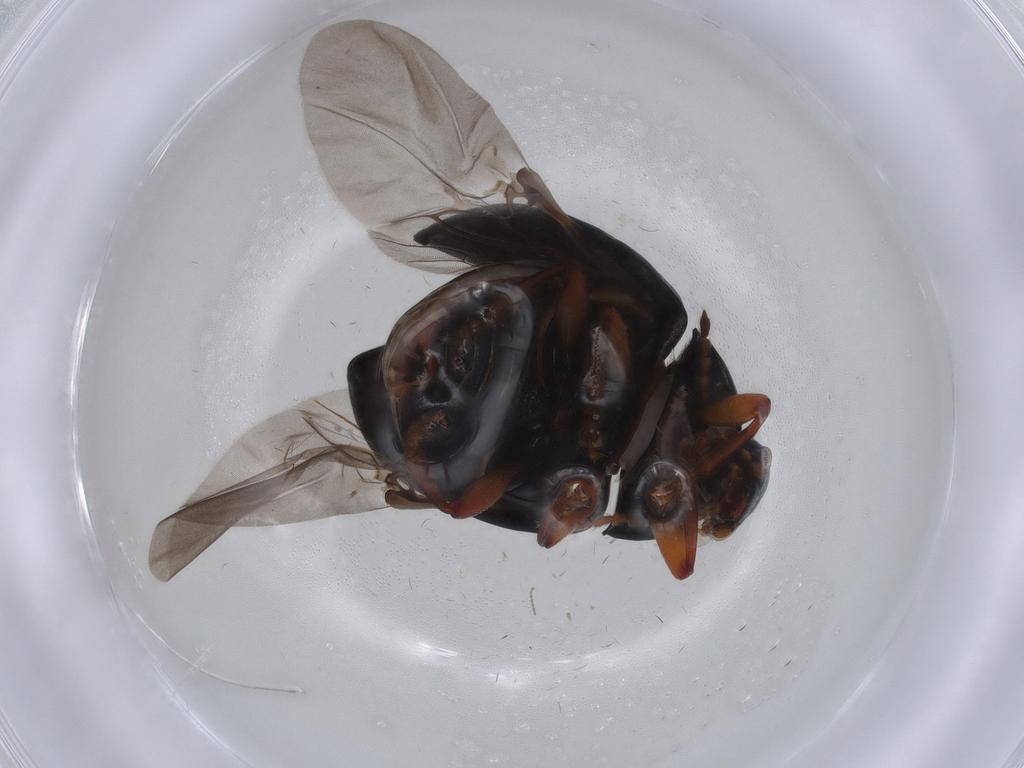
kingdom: Animalia
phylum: Arthropoda
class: Insecta
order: Coleoptera
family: Chrysomelidae
